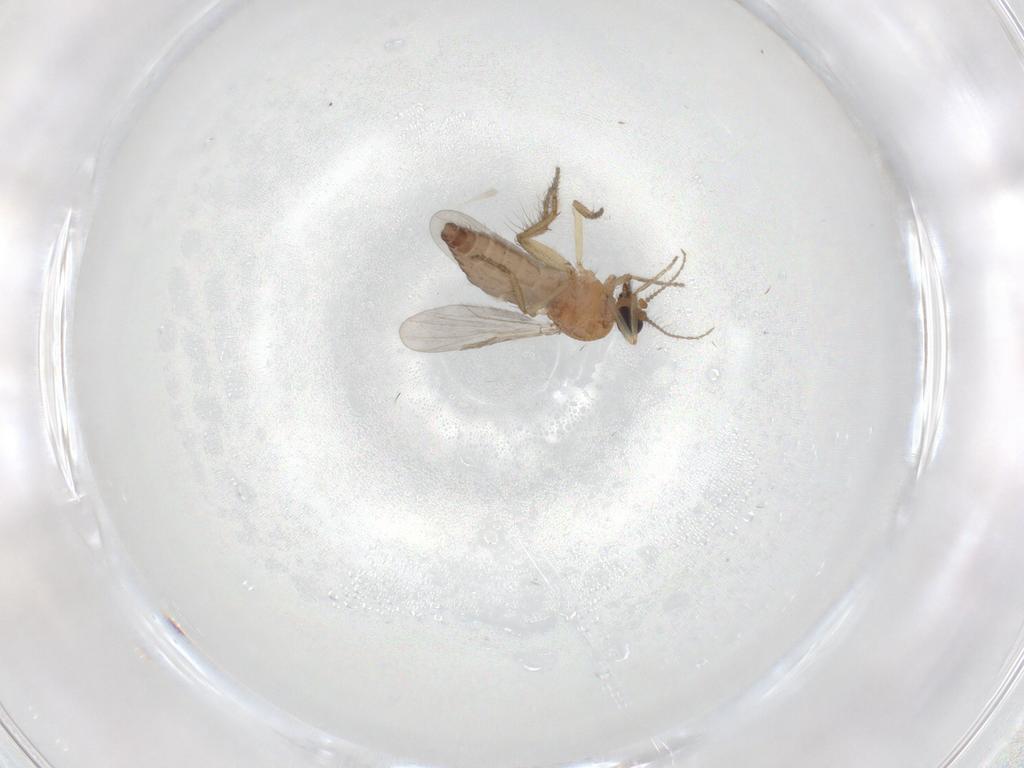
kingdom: Animalia
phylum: Arthropoda
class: Insecta
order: Diptera
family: Ceratopogonidae
